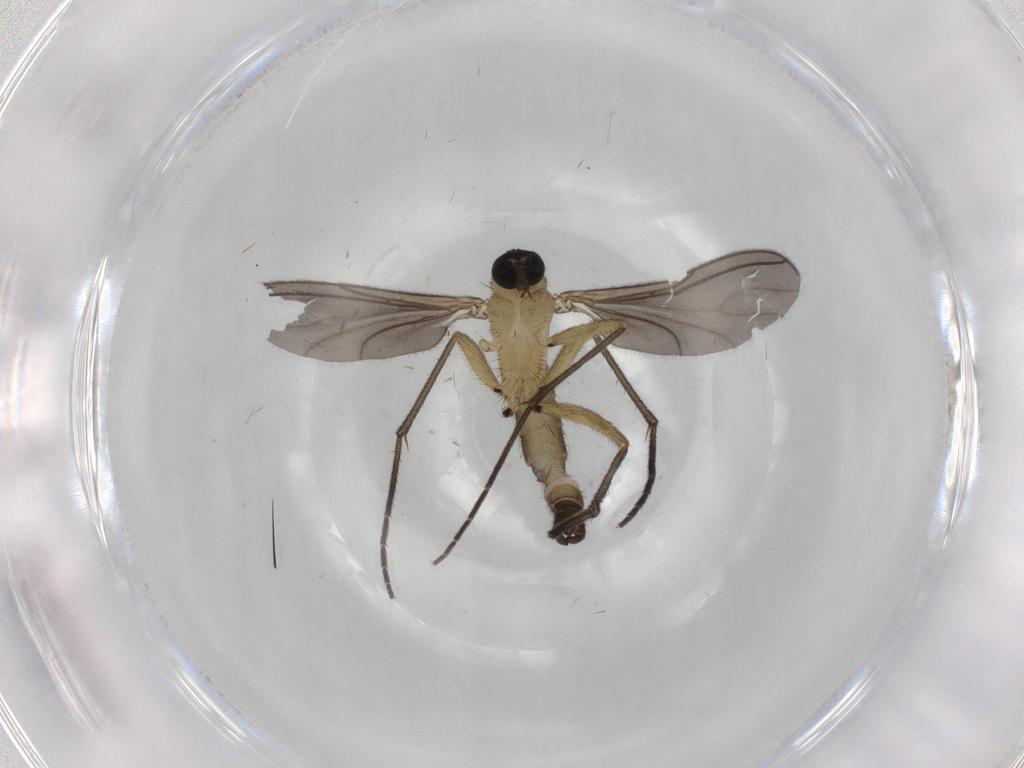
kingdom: Animalia
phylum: Arthropoda
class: Insecta
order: Diptera
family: Sciaridae
